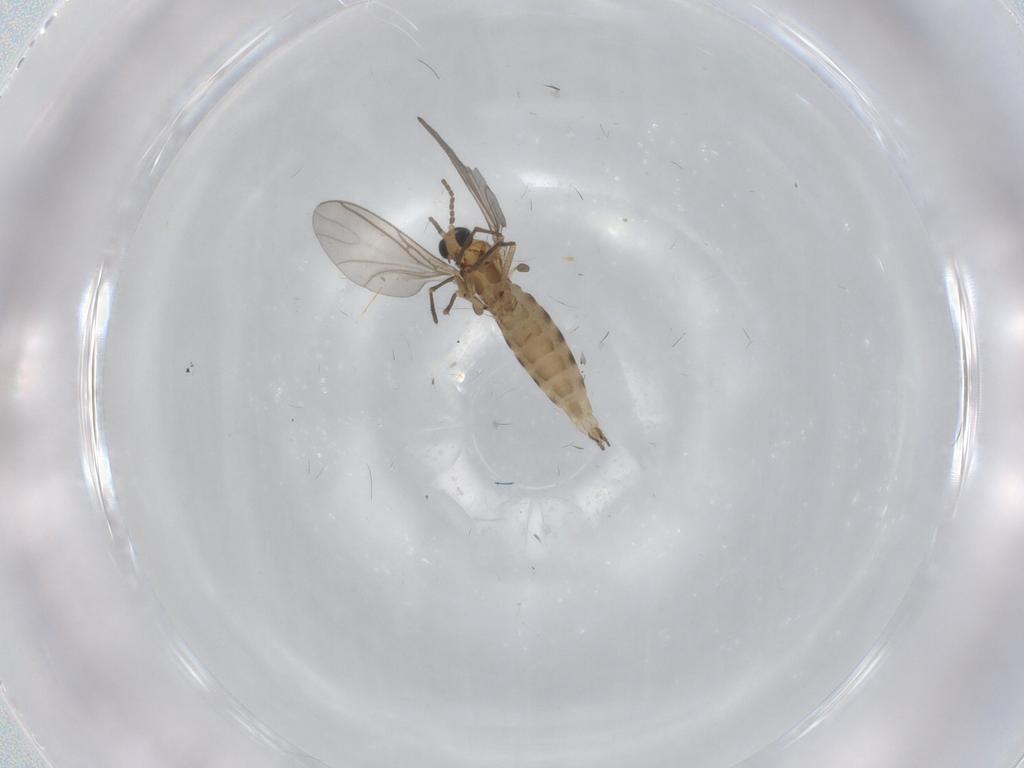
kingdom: Animalia
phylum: Arthropoda
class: Insecta
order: Diptera
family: Sciaridae
